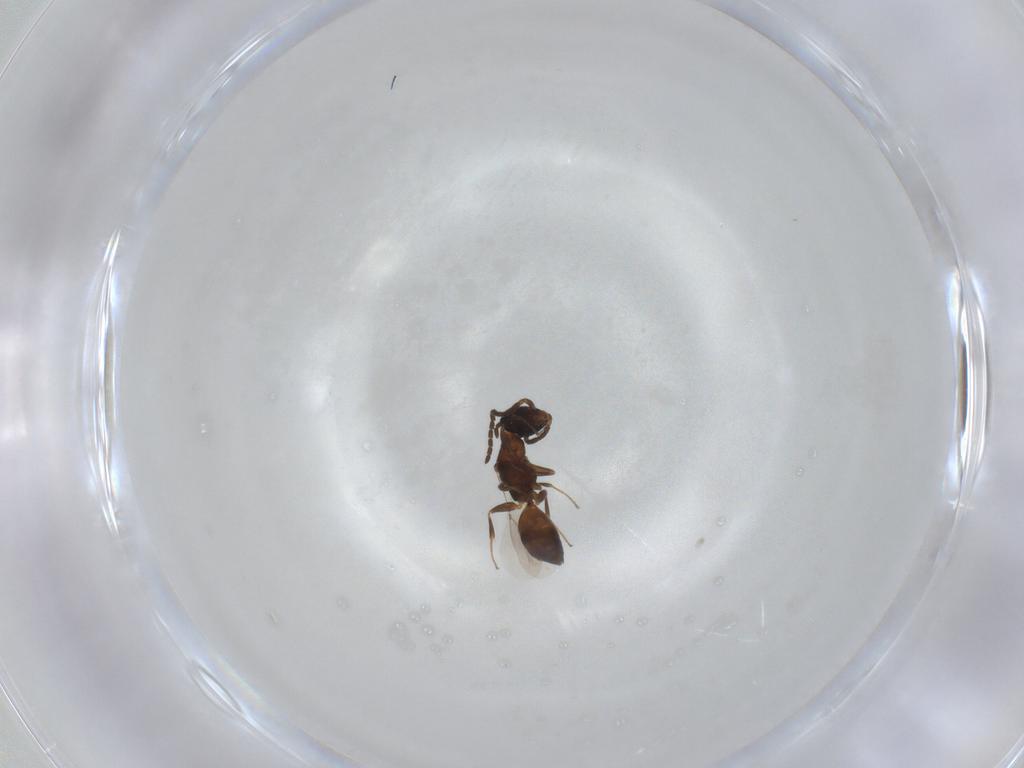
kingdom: Animalia
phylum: Arthropoda
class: Insecta
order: Hymenoptera
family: Bethylidae
